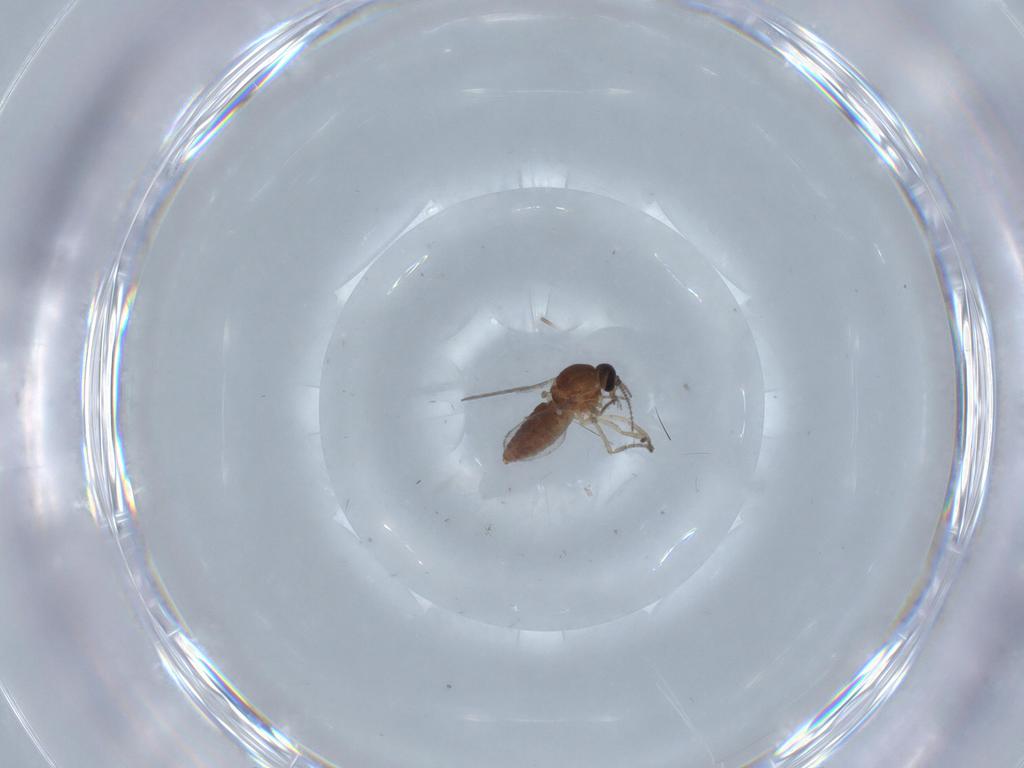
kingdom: Animalia
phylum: Arthropoda
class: Insecta
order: Diptera
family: Ceratopogonidae
